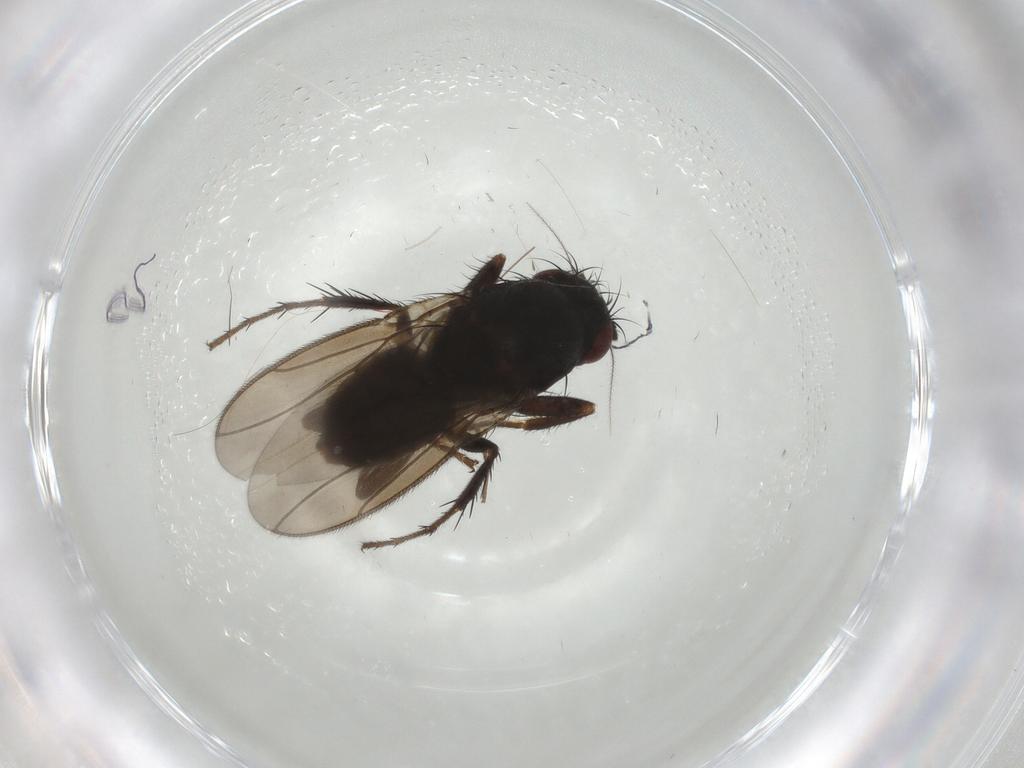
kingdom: Animalia
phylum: Arthropoda
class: Insecta
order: Diptera
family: Sphaeroceridae
